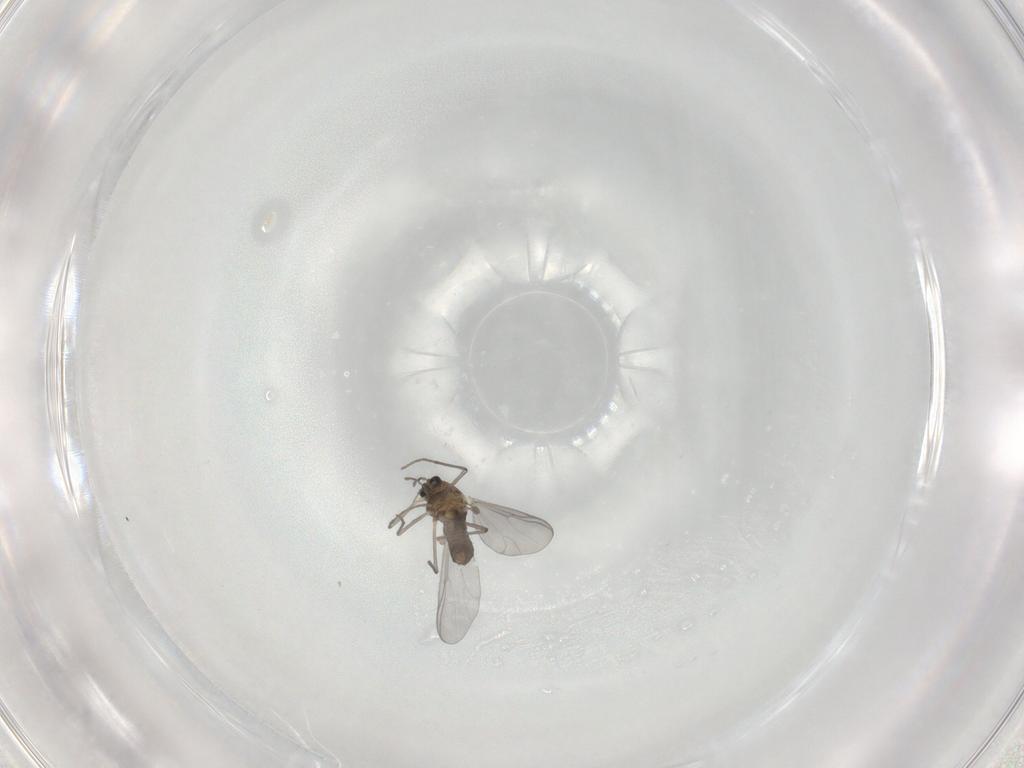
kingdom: Animalia
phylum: Arthropoda
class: Insecta
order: Diptera
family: Chironomidae
